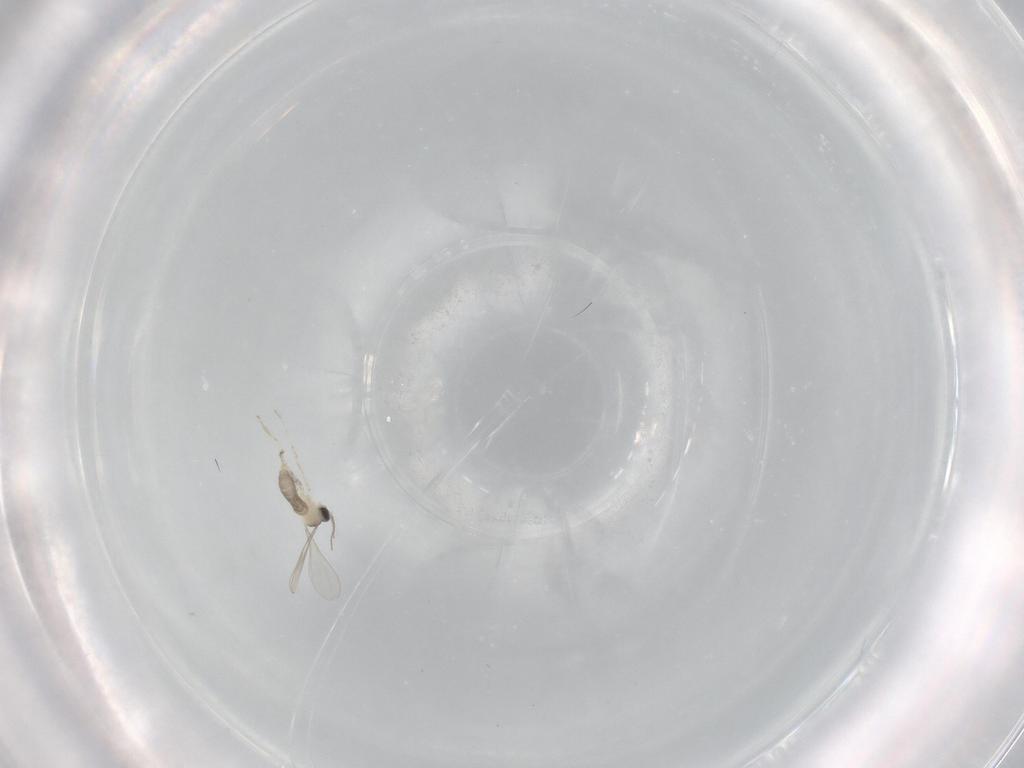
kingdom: Animalia
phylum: Arthropoda
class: Insecta
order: Diptera
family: Cecidomyiidae
